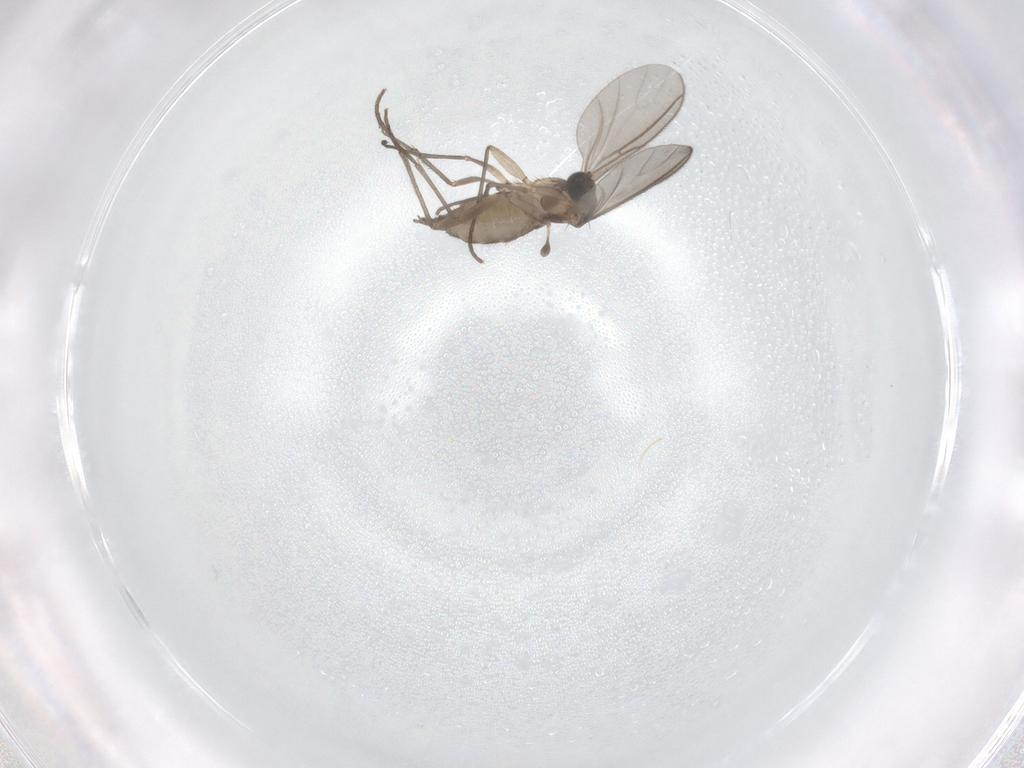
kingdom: Animalia
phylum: Arthropoda
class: Insecta
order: Diptera
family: Sciaridae
